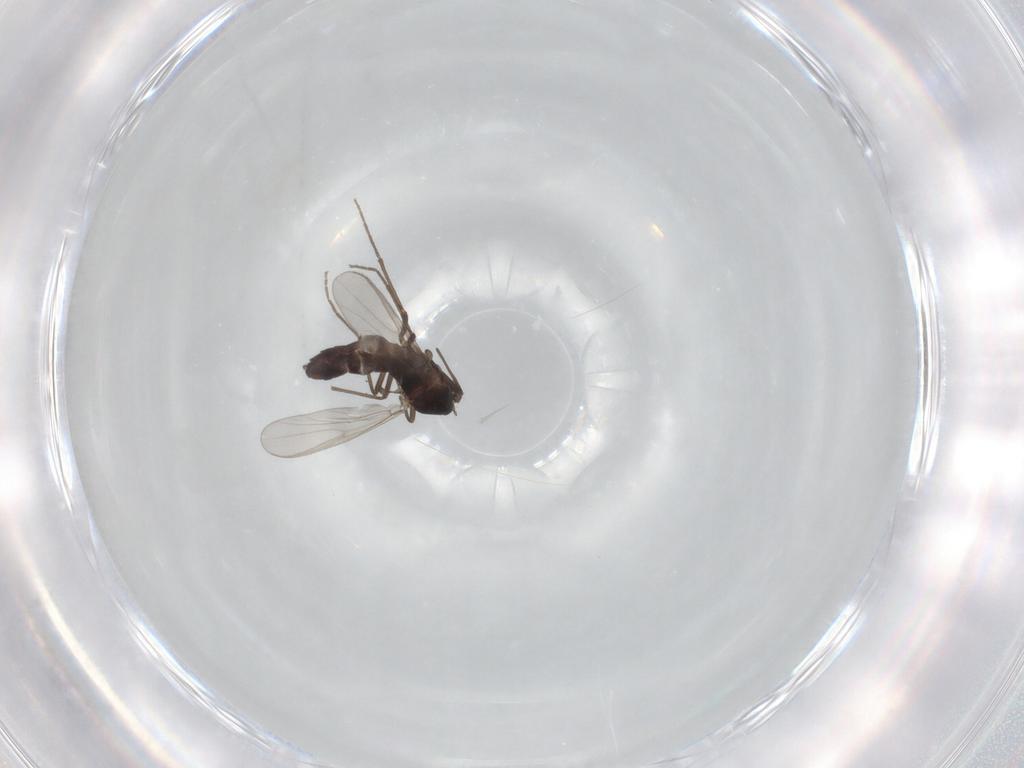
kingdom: Animalia
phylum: Arthropoda
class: Insecta
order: Diptera
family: Chironomidae
